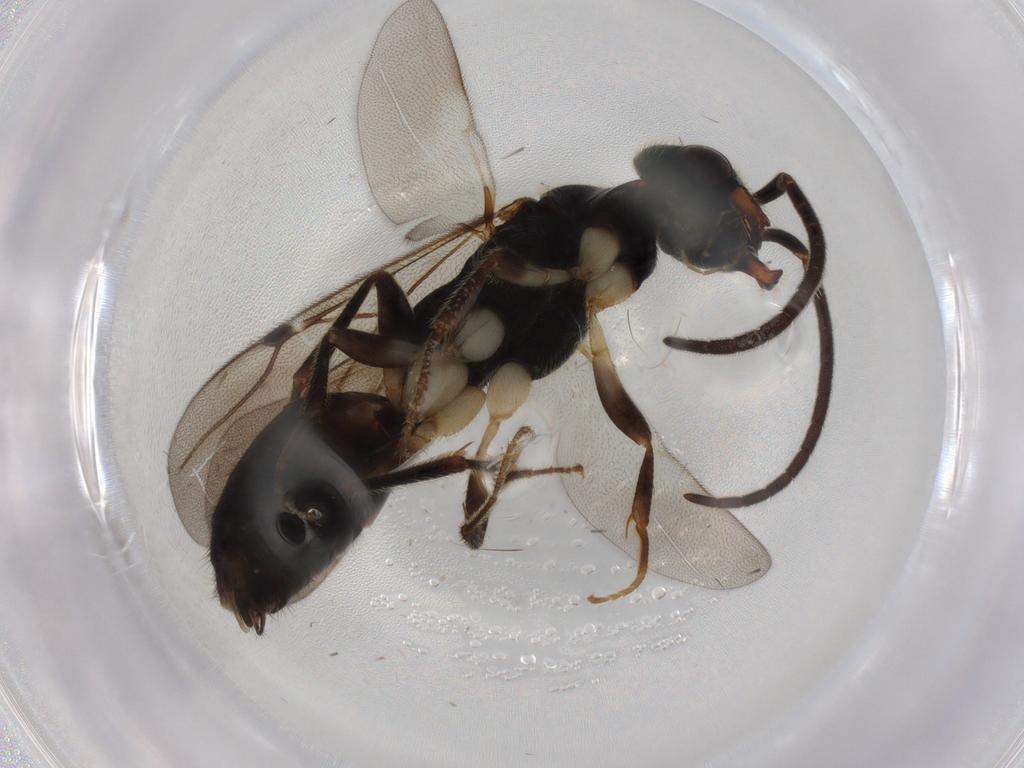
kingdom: Animalia
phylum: Arthropoda
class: Insecta
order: Hymenoptera
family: Bethylidae
